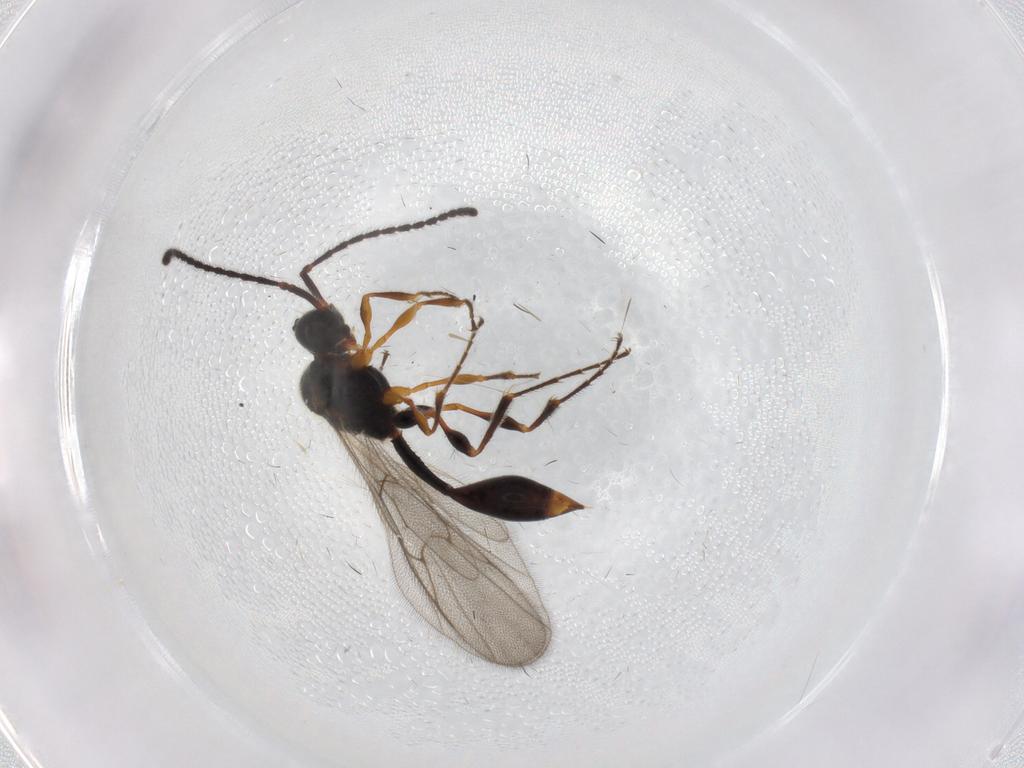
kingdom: Animalia
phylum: Arthropoda
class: Insecta
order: Hymenoptera
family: Diapriidae
